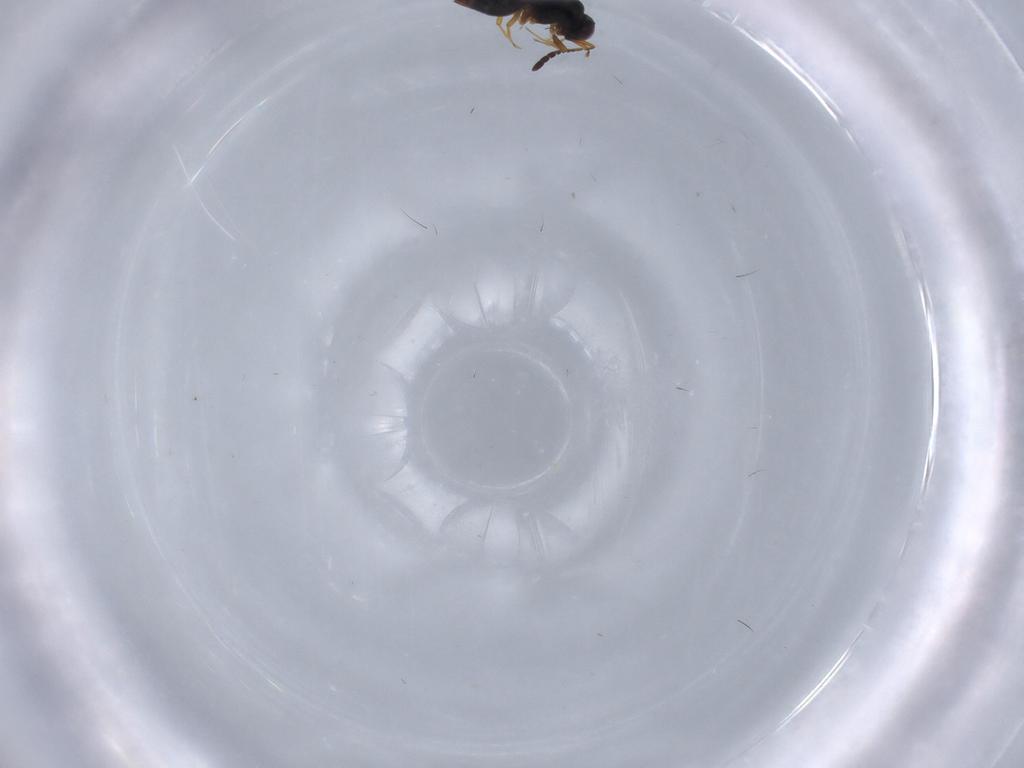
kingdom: Animalia
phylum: Arthropoda
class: Insecta
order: Hymenoptera
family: Ceraphronidae
